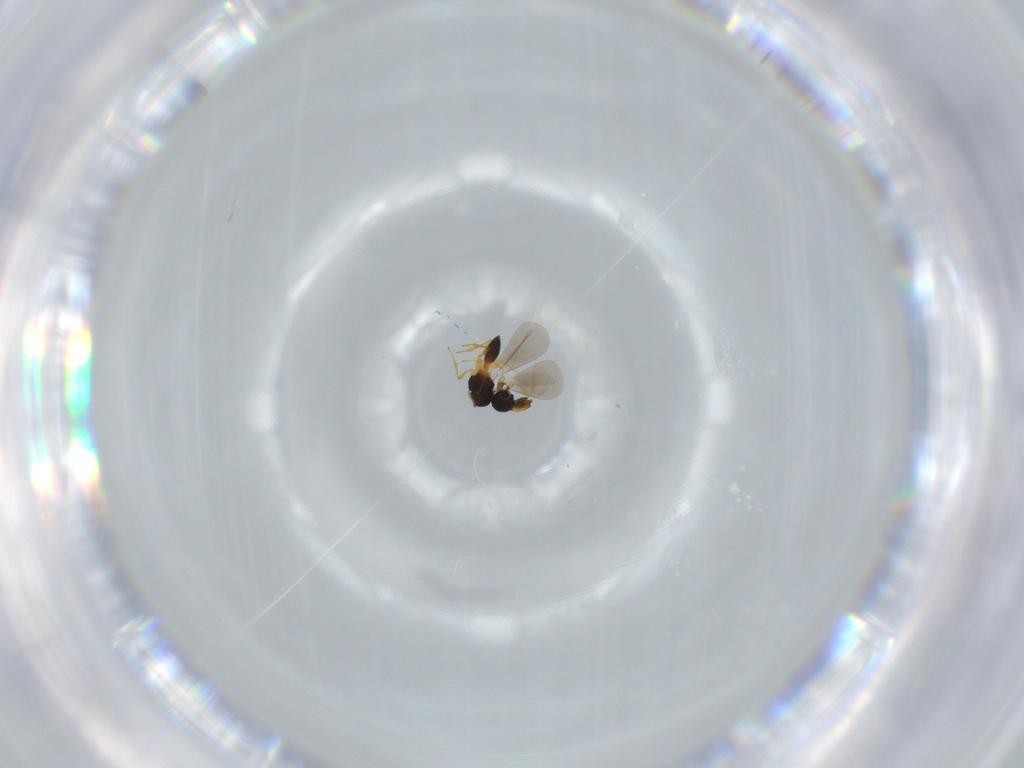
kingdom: Animalia
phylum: Arthropoda
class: Insecta
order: Hymenoptera
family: Platygastridae
